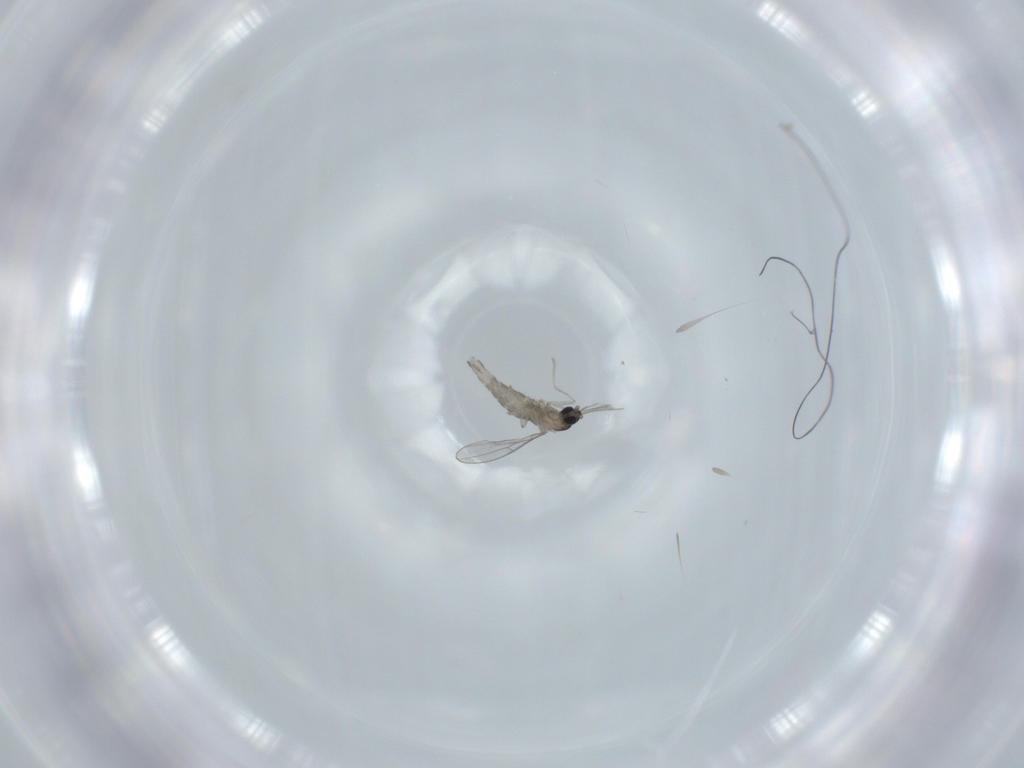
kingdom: Animalia
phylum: Arthropoda
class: Insecta
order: Diptera
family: Cecidomyiidae
